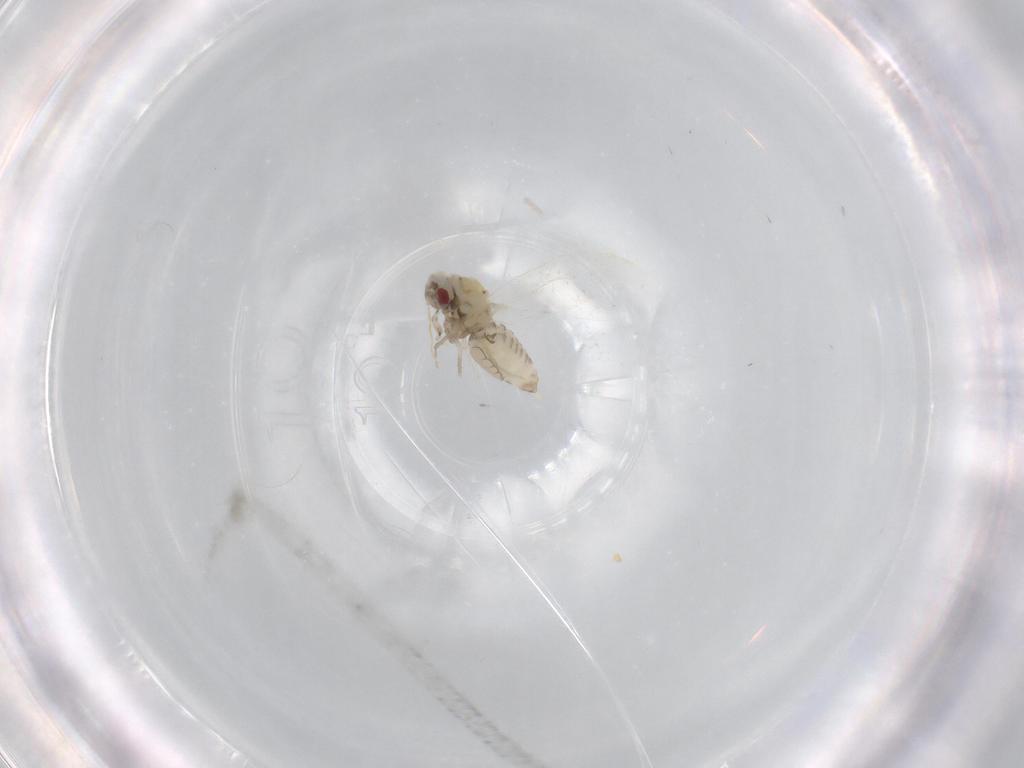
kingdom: Animalia
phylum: Arthropoda
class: Insecta
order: Hemiptera
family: Aleyrodidae
